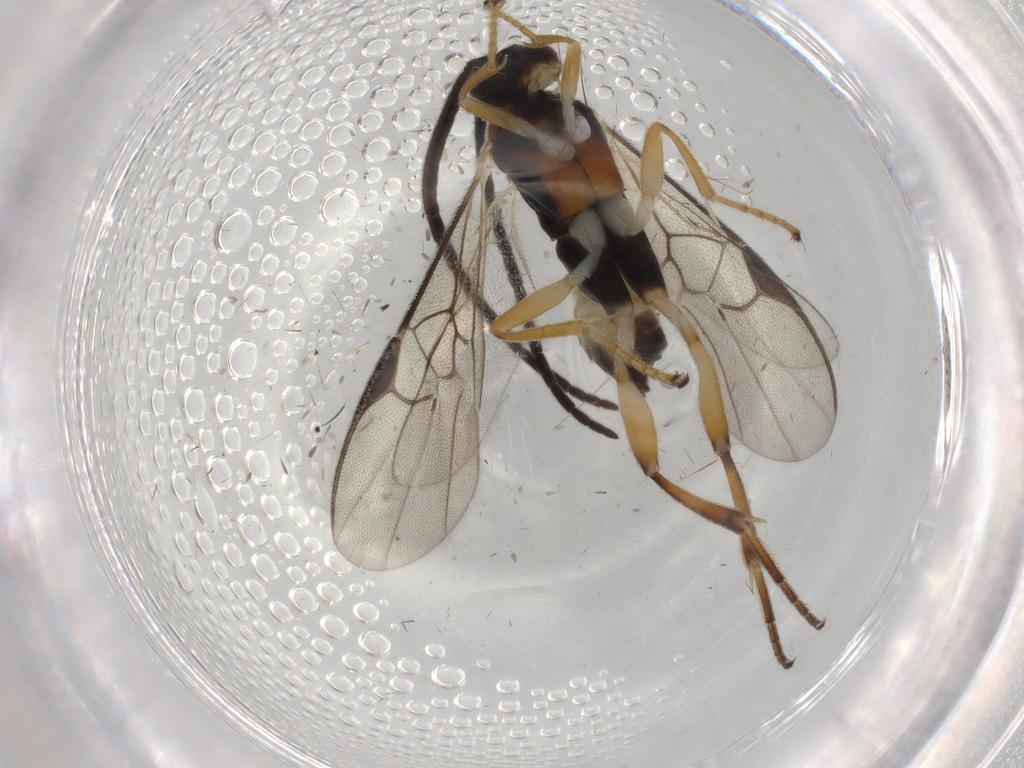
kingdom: Animalia
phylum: Arthropoda
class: Insecta
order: Hymenoptera
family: Braconidae
